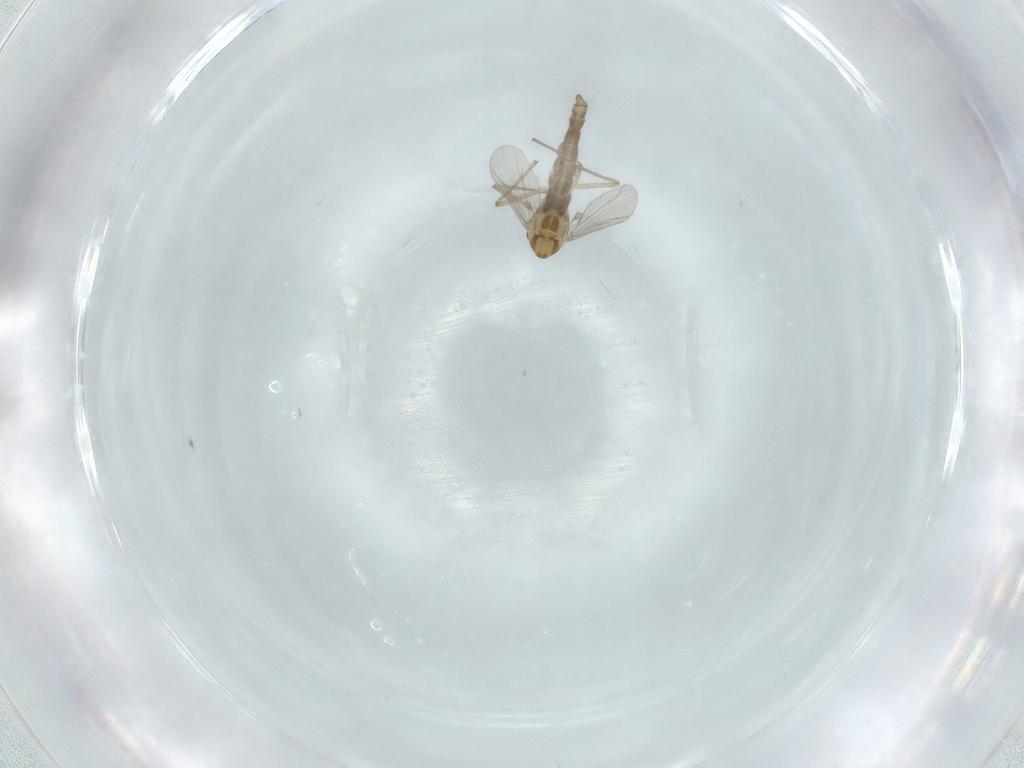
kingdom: Animalia
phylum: Arthropoda
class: Insecta
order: Diptera
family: Chironomidae
